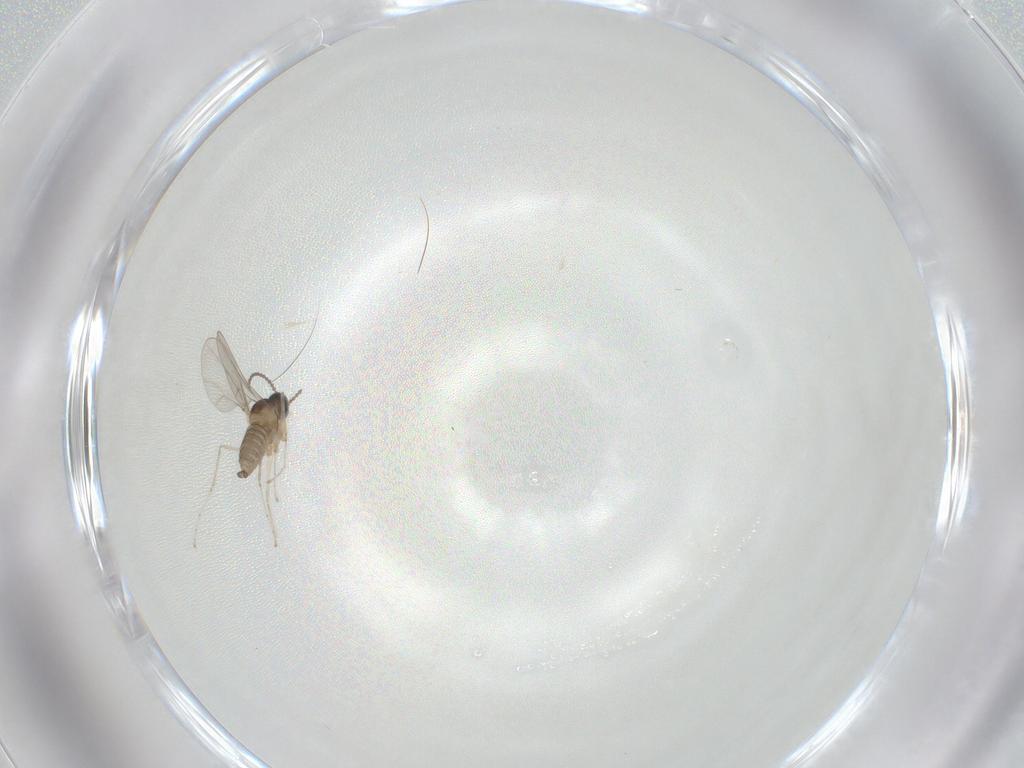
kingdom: Animalia
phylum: Arthropoda
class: Insecta
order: Diptera
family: Cecidomyiidae
